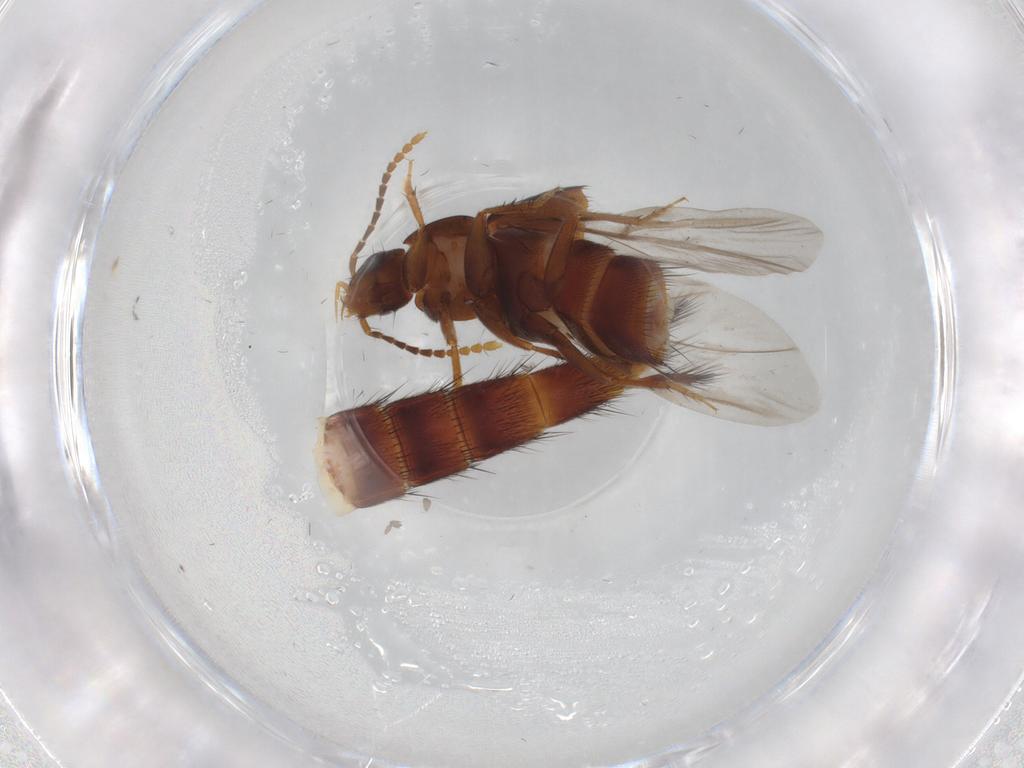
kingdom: Animalia
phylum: Arthropoda
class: Insecta
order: Coleoptera
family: Staphylinidae
